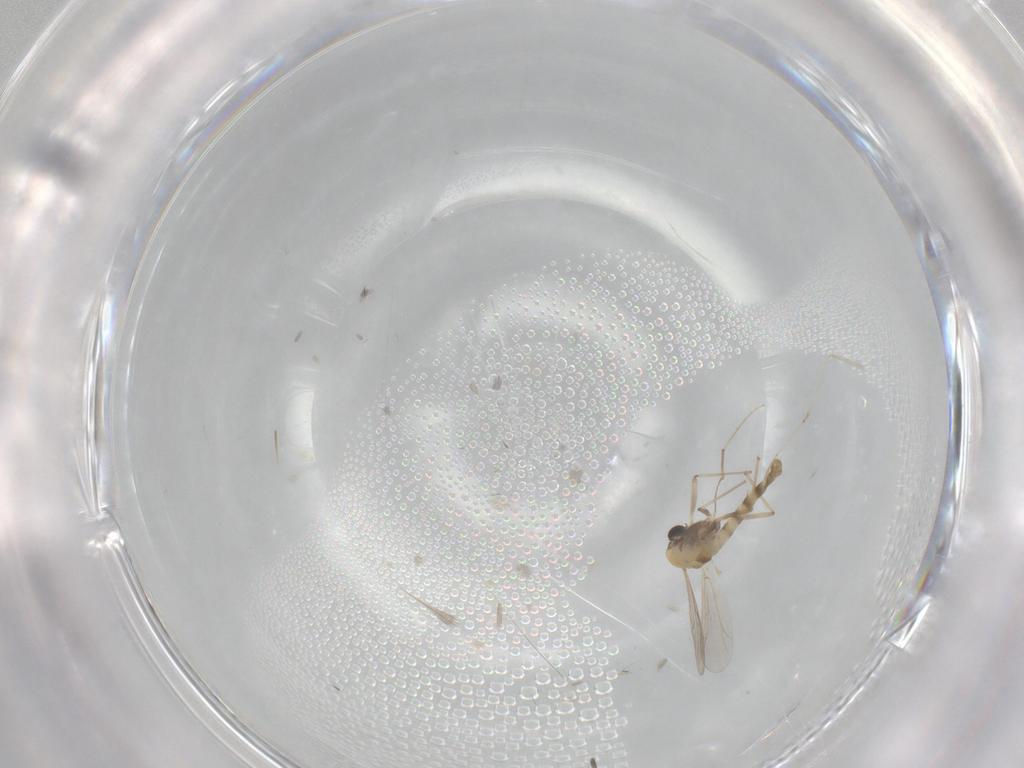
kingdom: Animalia
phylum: Arthropoda
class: Insecta
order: Diptera
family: Chironomidae
